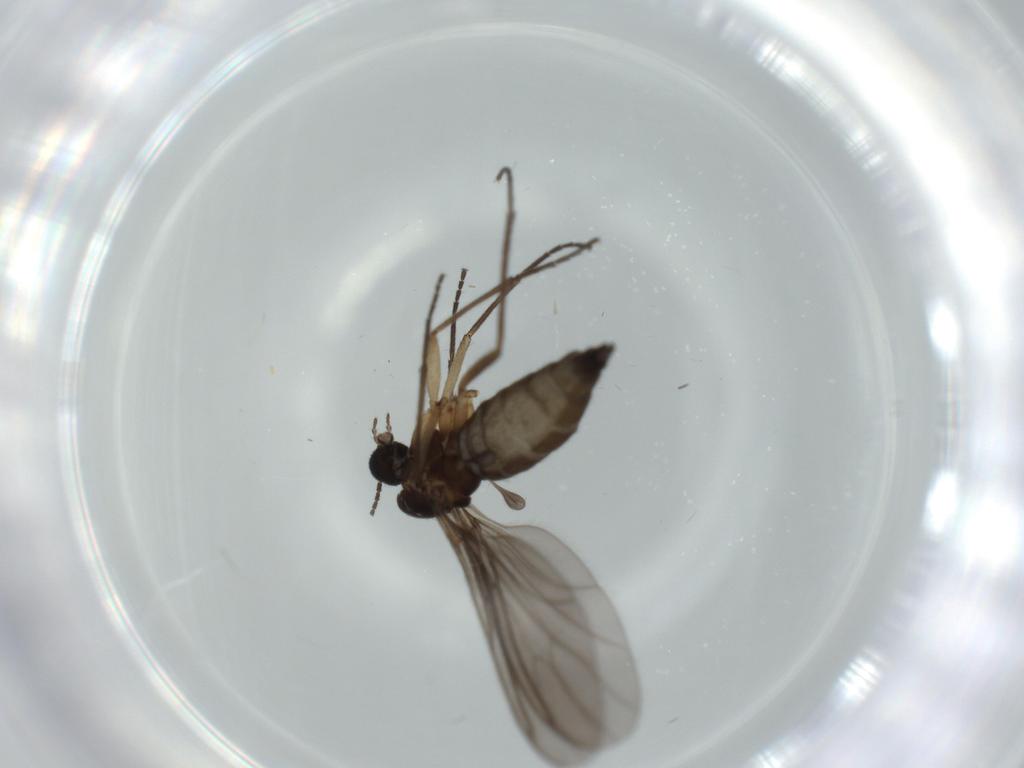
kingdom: Animalia
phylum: Arthropoda
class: Insecta
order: Diptera
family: Sciaridae
